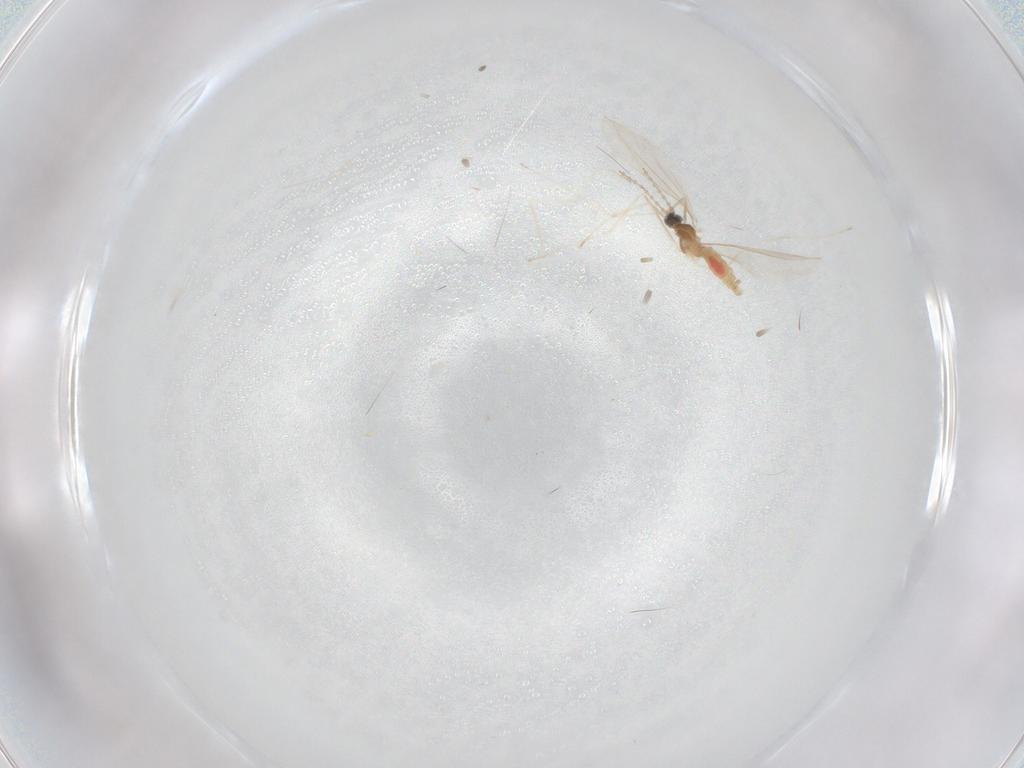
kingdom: Animalia
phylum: Arthropoda
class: Insecta
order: Diptera
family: Cecidomyiidae
